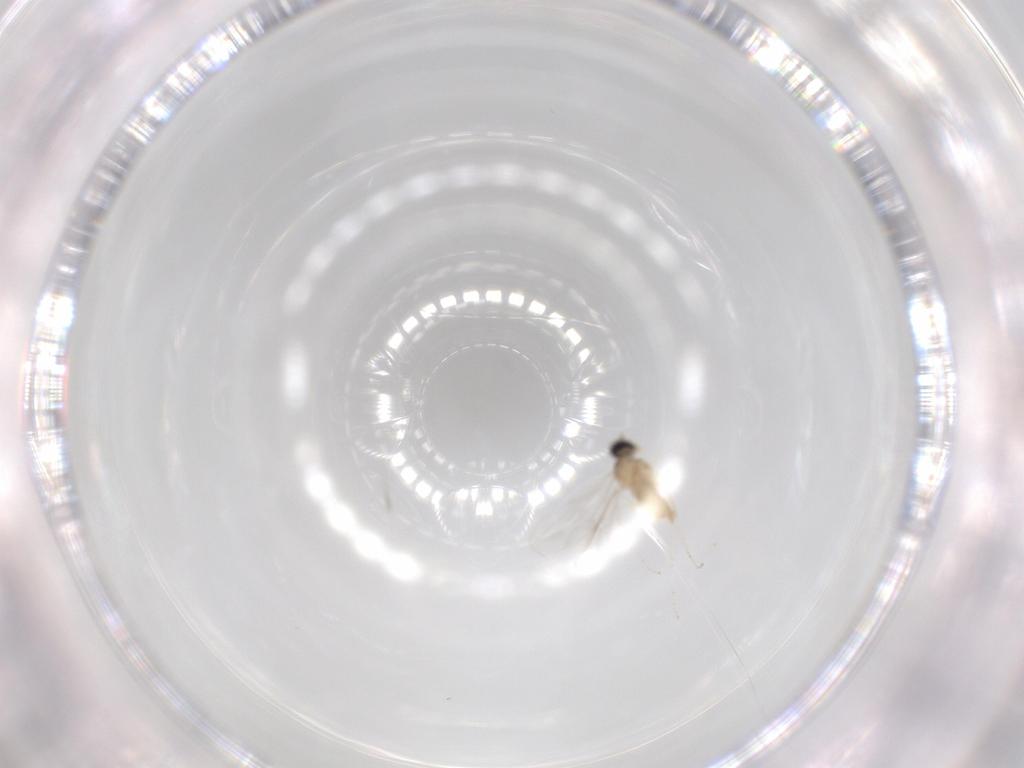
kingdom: Animalia
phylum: Arthropoda
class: Insecta
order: Diptera
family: Cecidomyiidae
